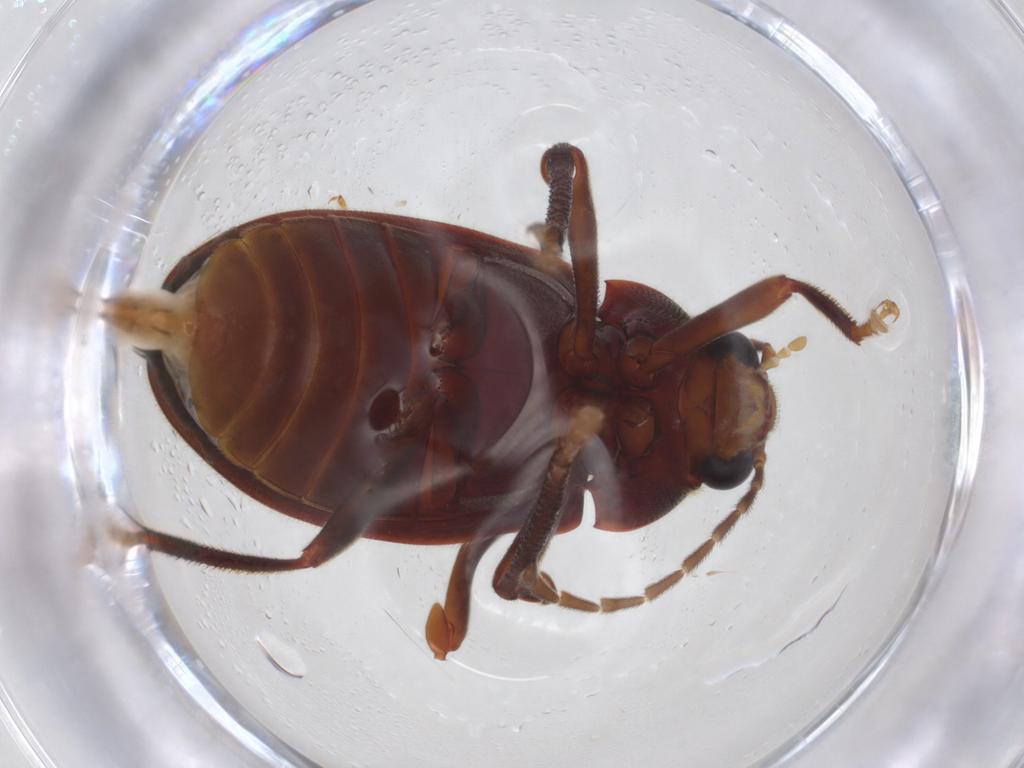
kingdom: Animalia
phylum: Arthropoda
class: Insecta
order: Coleoptera
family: Ptilodactylidae
